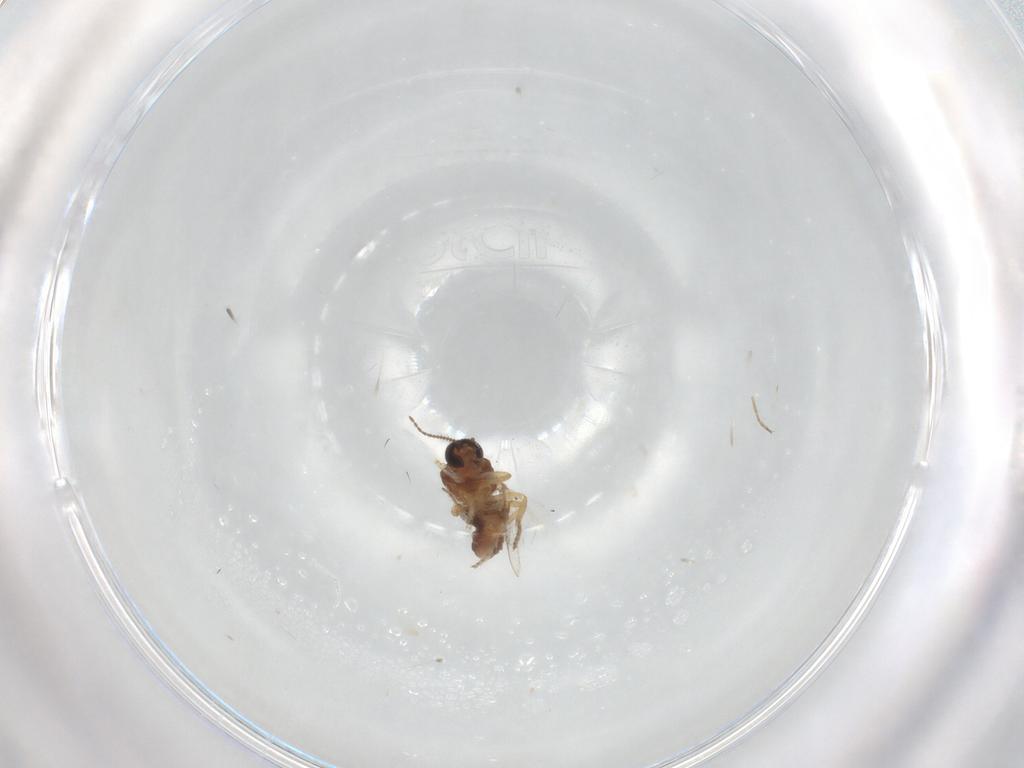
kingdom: Animalia
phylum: Arthropoda
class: Insecta
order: Diptera
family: Ceratopogonidae
